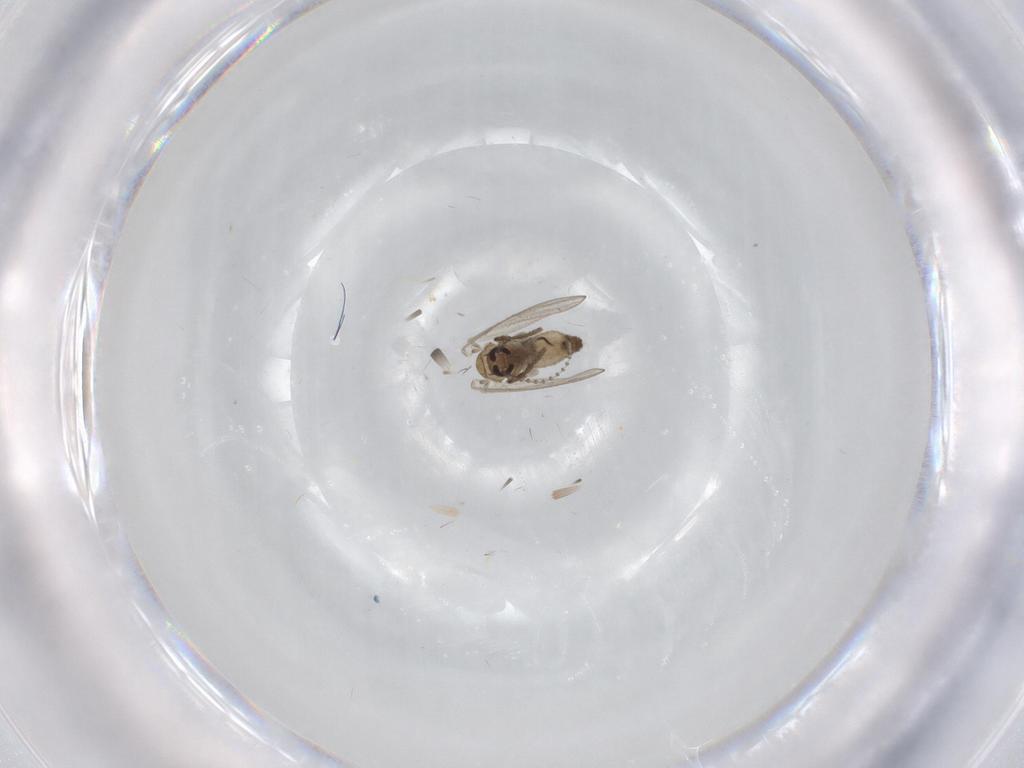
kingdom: Animalia
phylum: Arthropoda
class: Insecta
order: Diptera
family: Psychodidae
